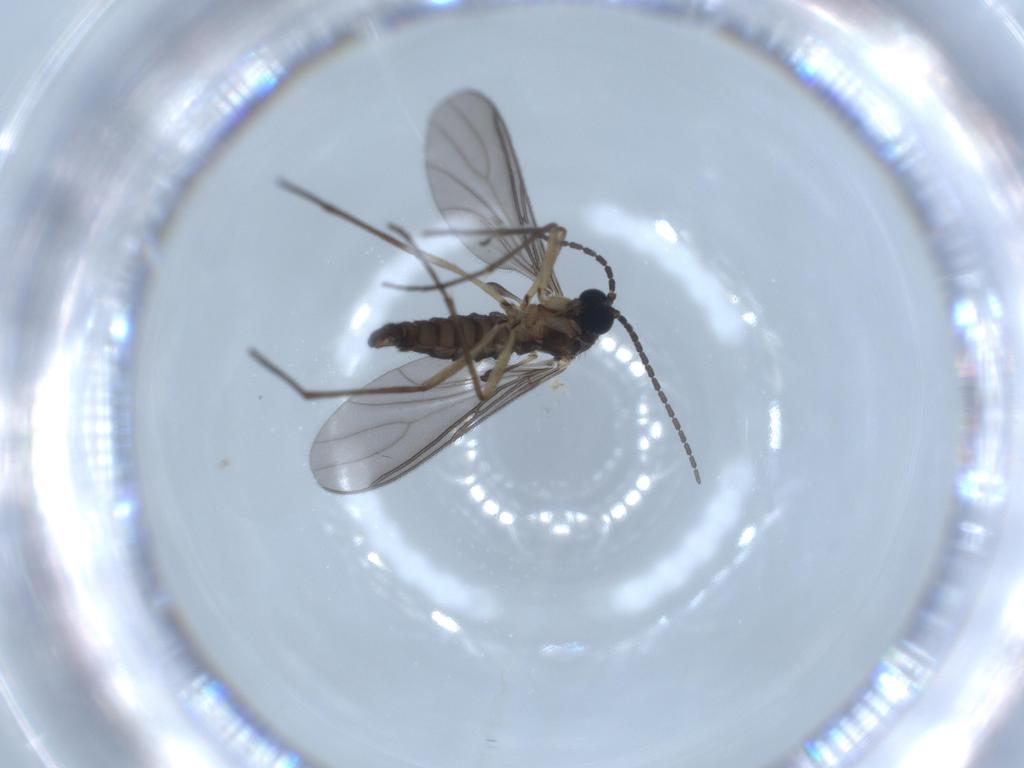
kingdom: Animalia
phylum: Arthropoda
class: Insecta
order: Diptera
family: Sciaridae
